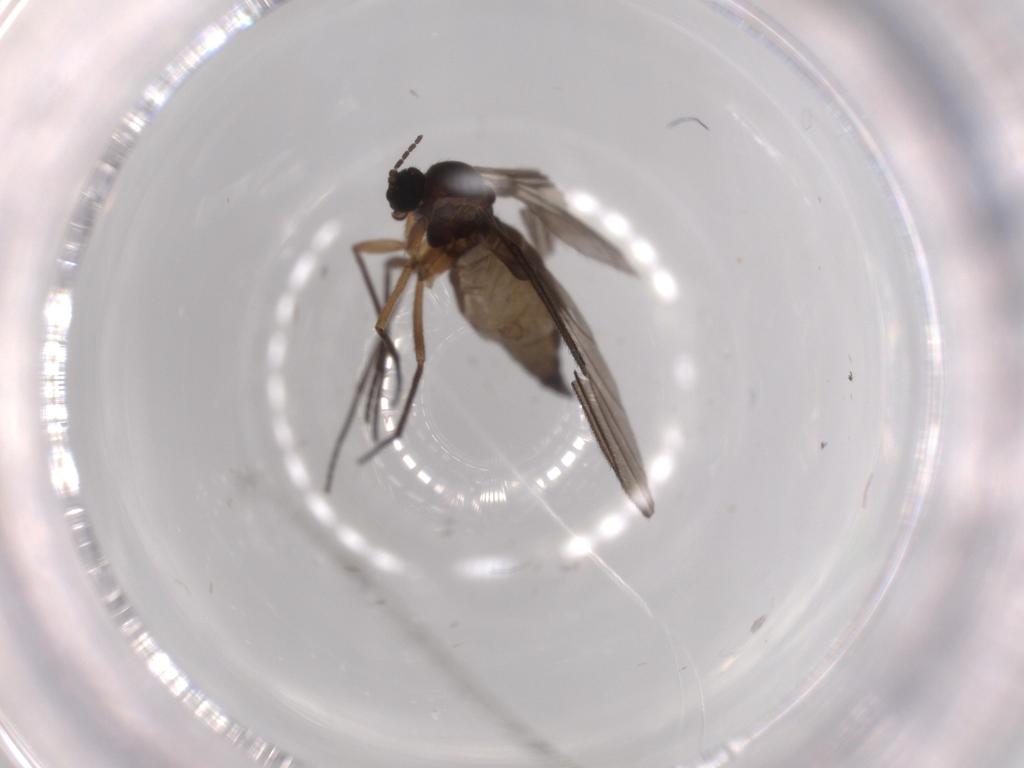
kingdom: Animalia
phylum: Arthropoda
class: Insecta
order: Diptera
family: Sciaridae
